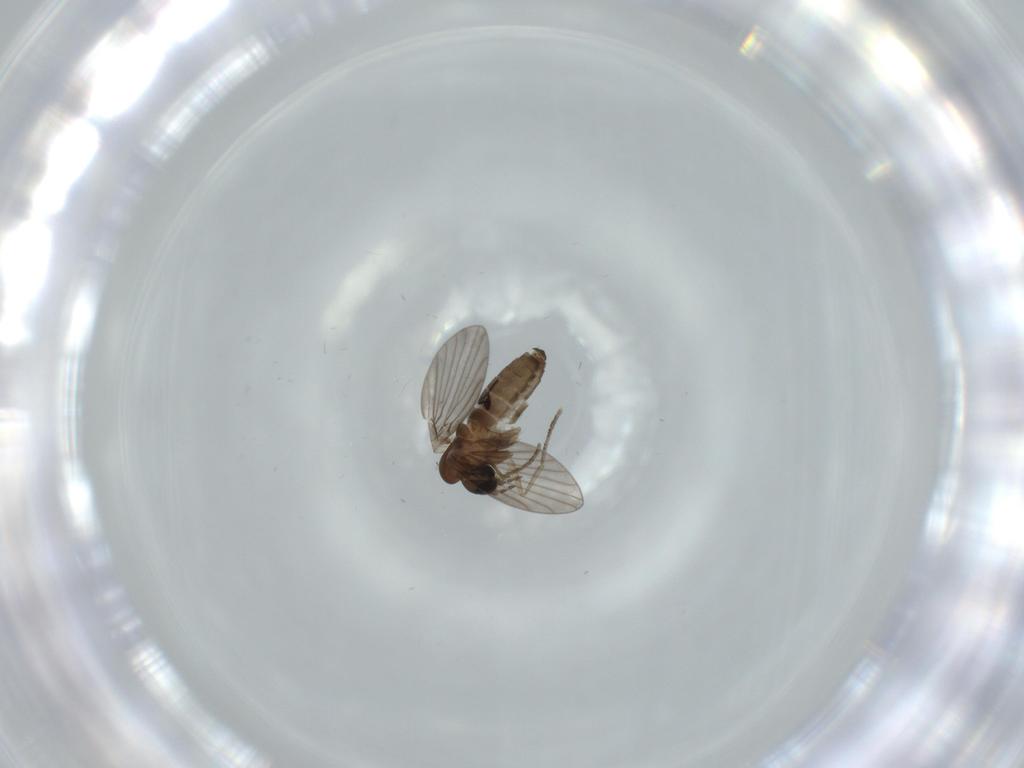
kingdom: Animalia
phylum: Arthropoda
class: Insecta
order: Diptera
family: Psychodidae
